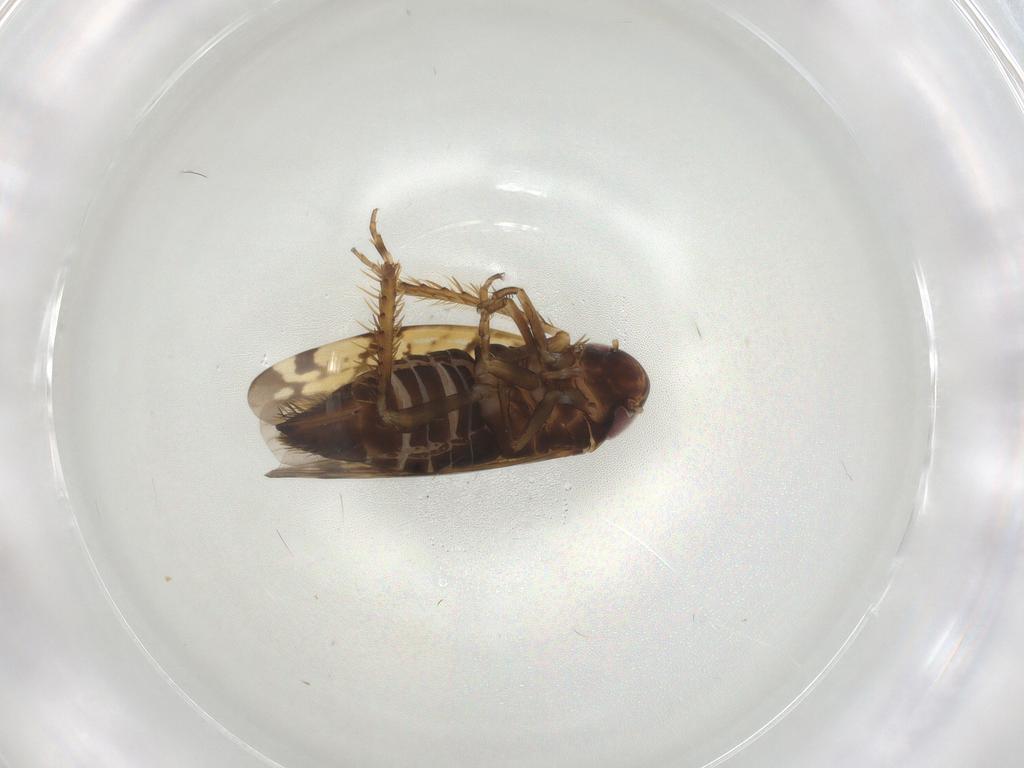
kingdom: Animalia
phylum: Arthropoda
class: Insecta
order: Hemiptera
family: Cicadellidae
